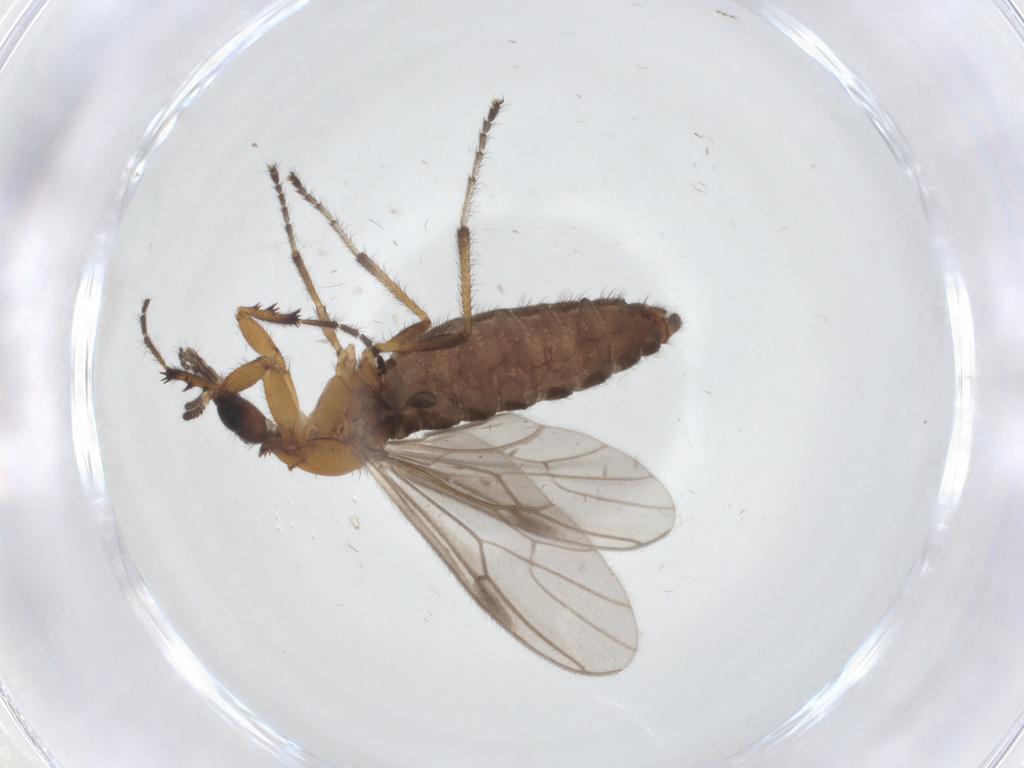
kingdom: Animalia
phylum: Arthropoda
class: Insecta
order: Diptera
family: Bibionidae
